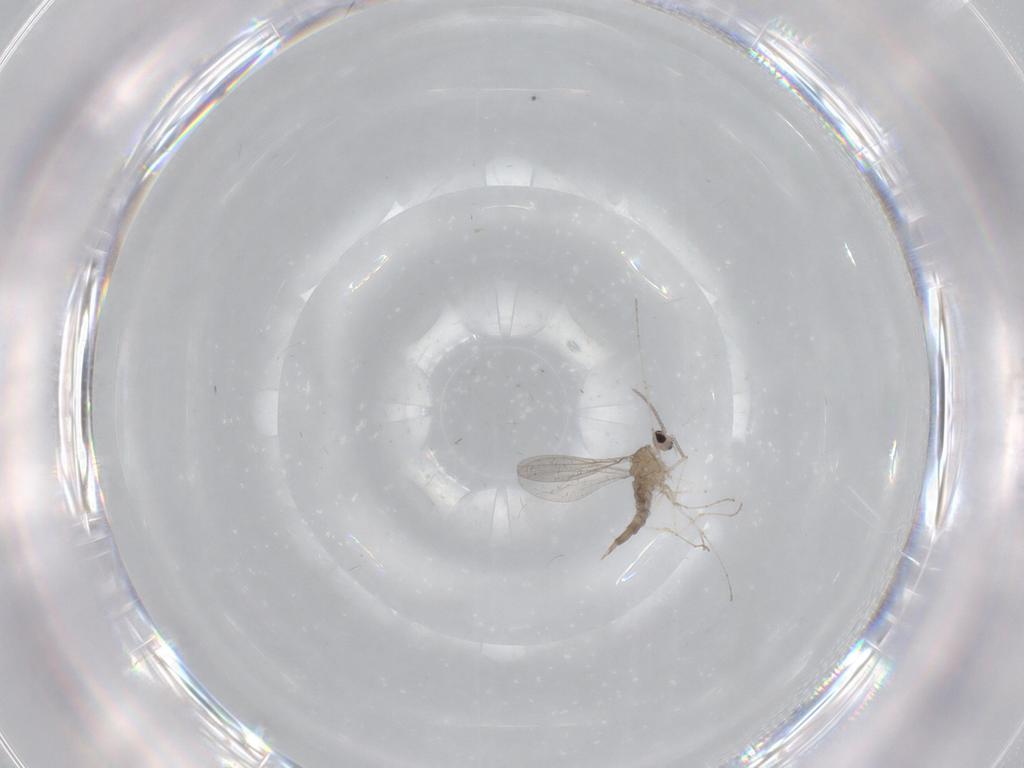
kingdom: Animalia
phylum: Arthropoda
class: Insecta
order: Diptera
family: Cecidomyiidae
